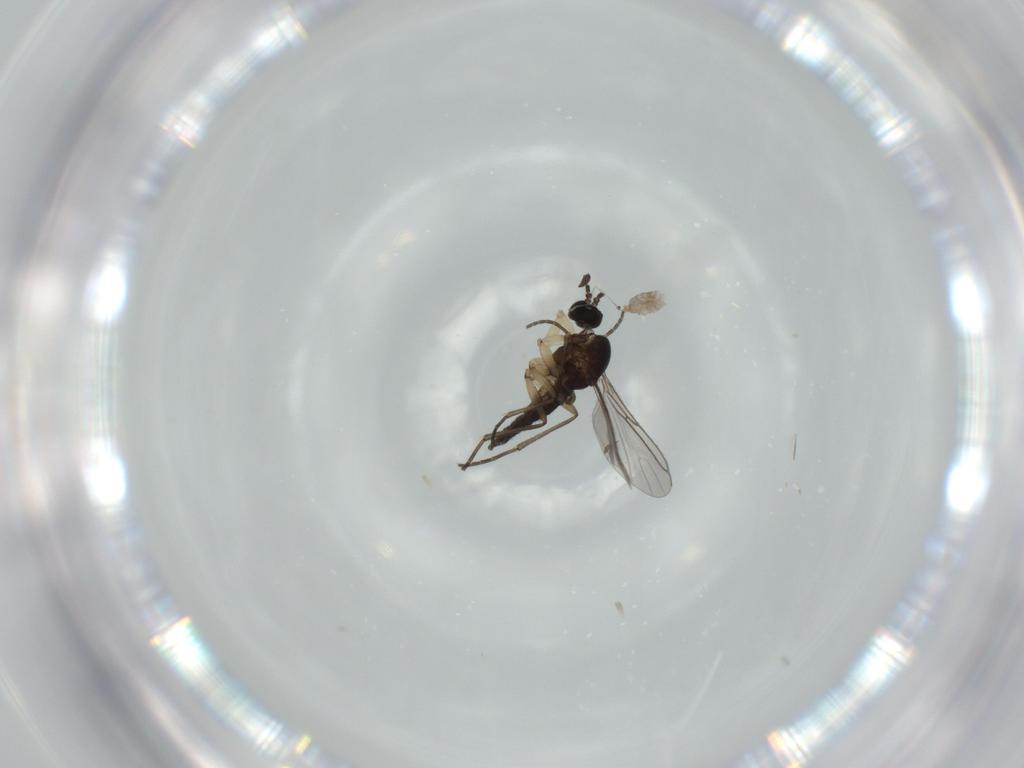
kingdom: Animalia
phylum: Arthropoda
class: Insecta
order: Diptera
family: Sciaridae
